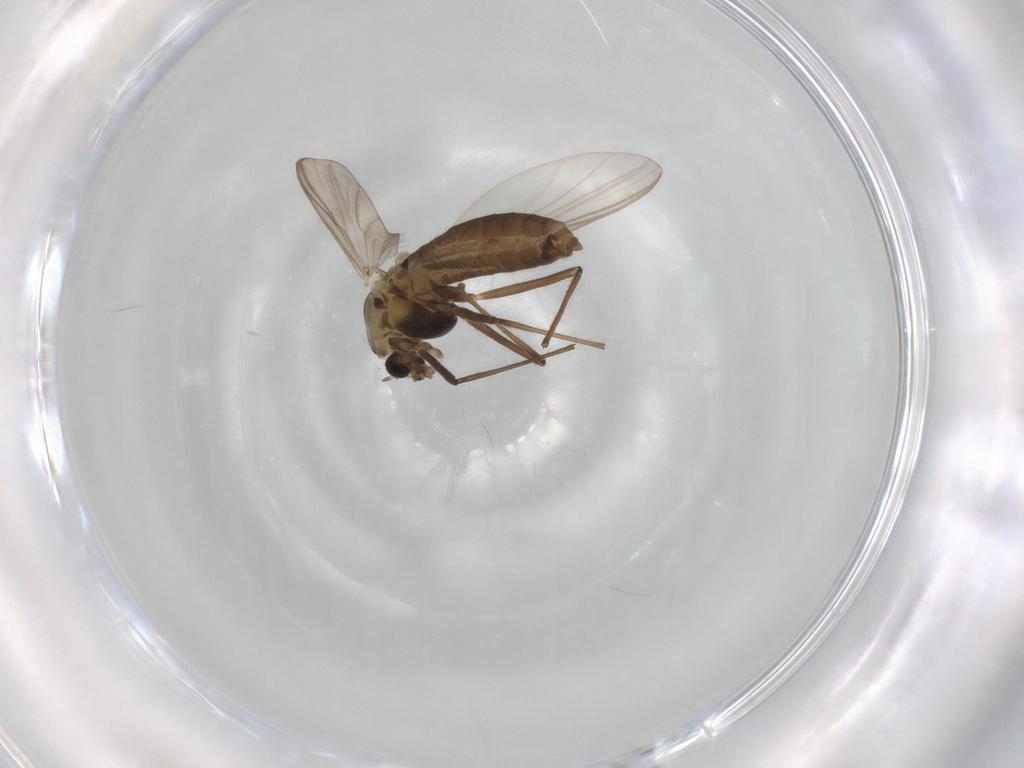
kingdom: Animalia
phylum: Arthropoda
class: Insecta
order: Diptera
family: Chironomidae
